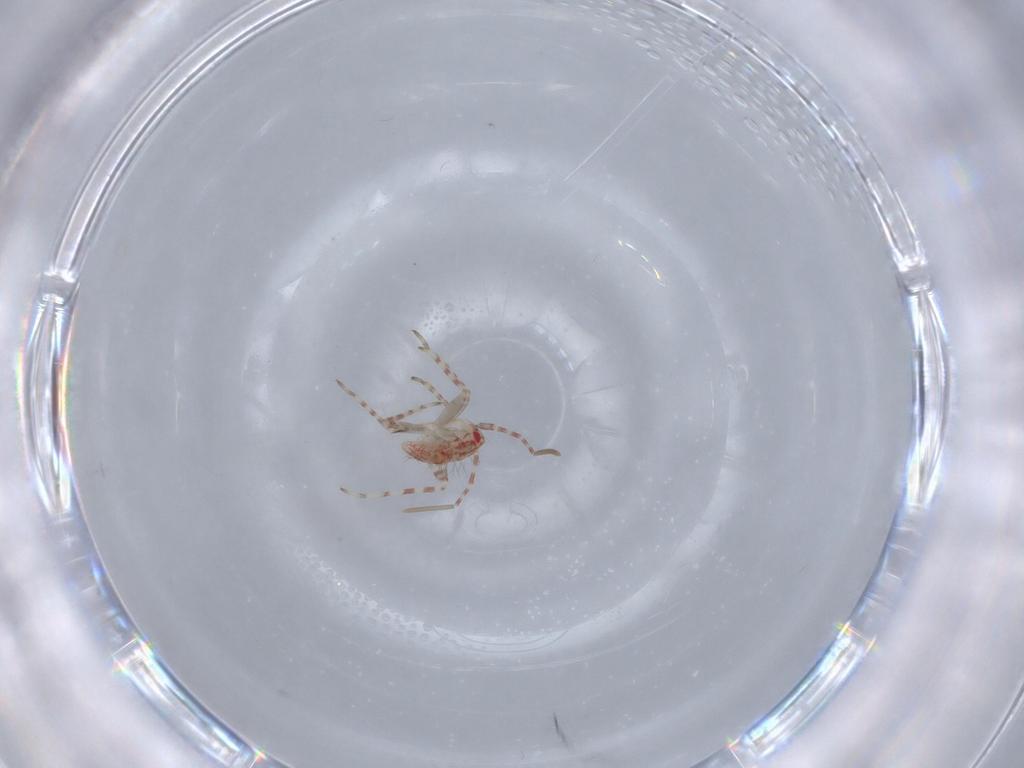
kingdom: Animalia
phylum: Arthropoda
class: Insecta
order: Hemiptera
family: Miridae
